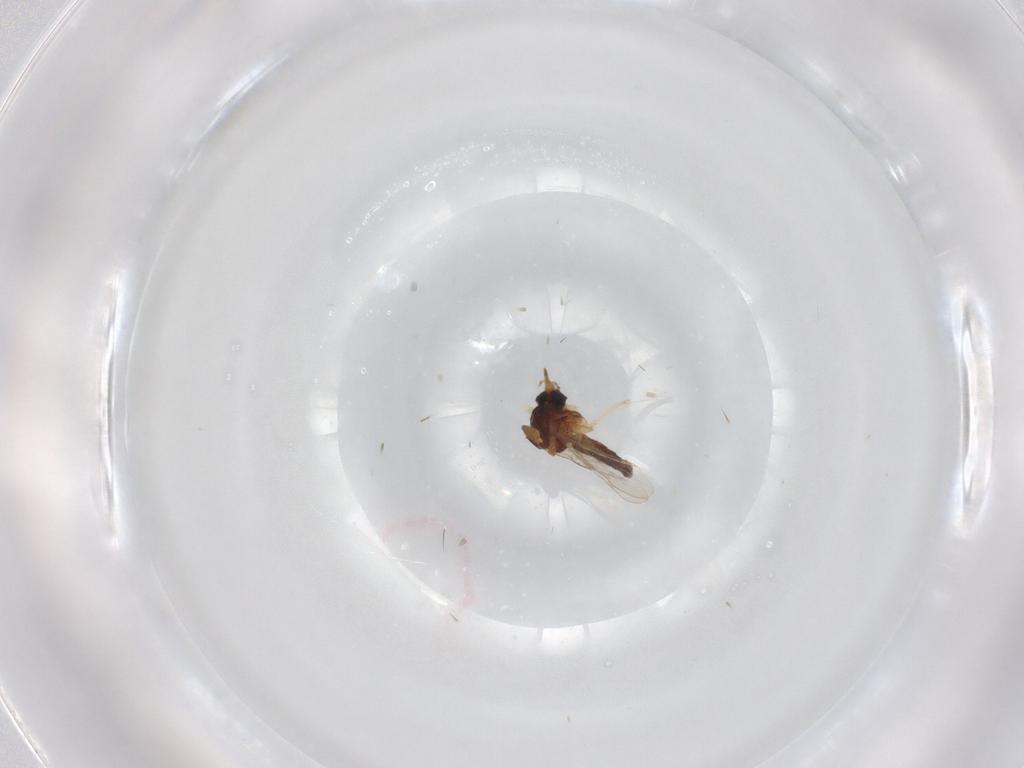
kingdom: Animalia
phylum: Arthropoda
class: Insecta
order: Diptera
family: Ceratopogonidae
